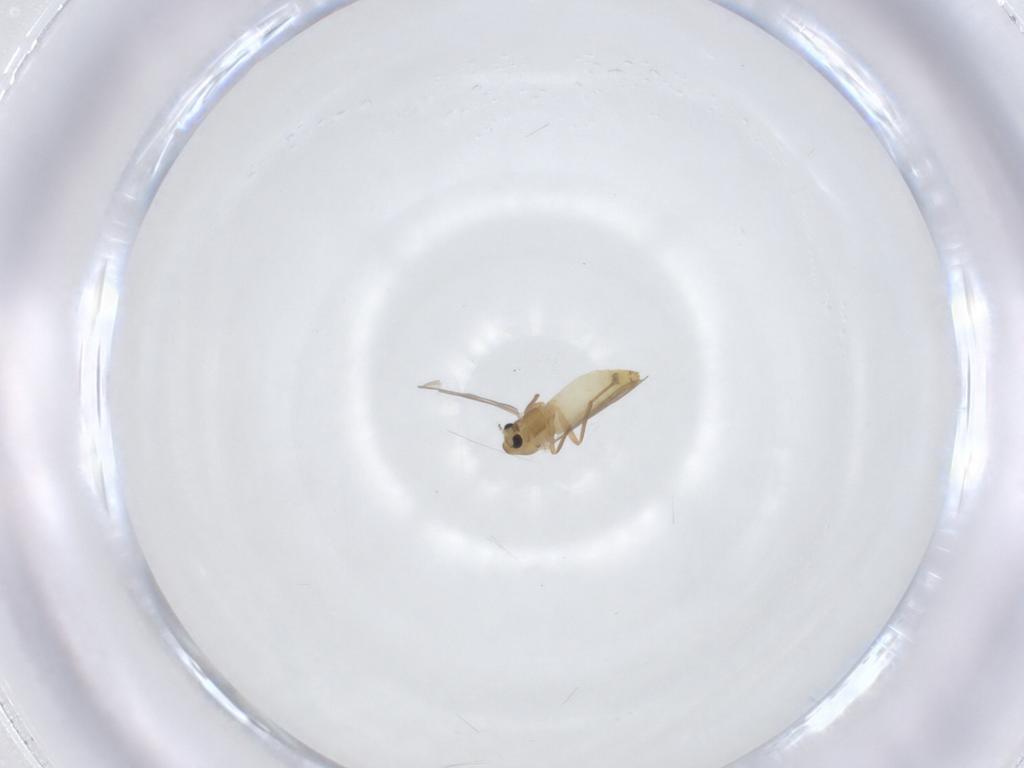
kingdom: Animalia
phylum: Arthropoda
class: Insecta
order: Diptera
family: Chironomidae
